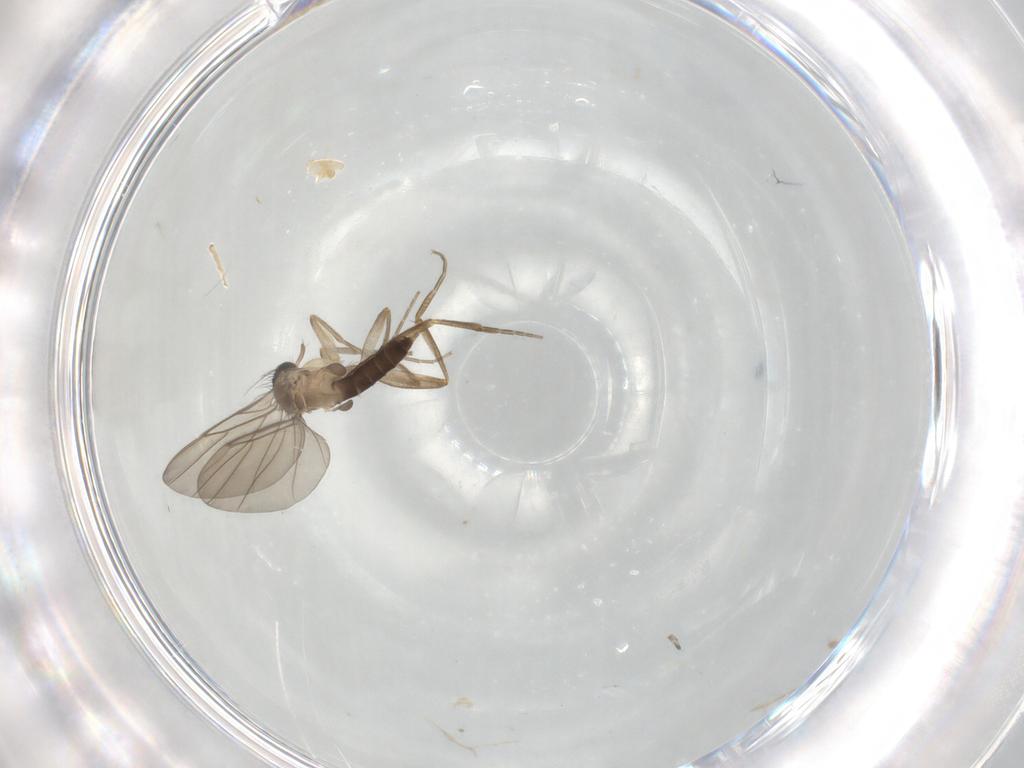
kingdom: Animalia
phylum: Arthropoda
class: Insecta
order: Diptera
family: Phoridae
